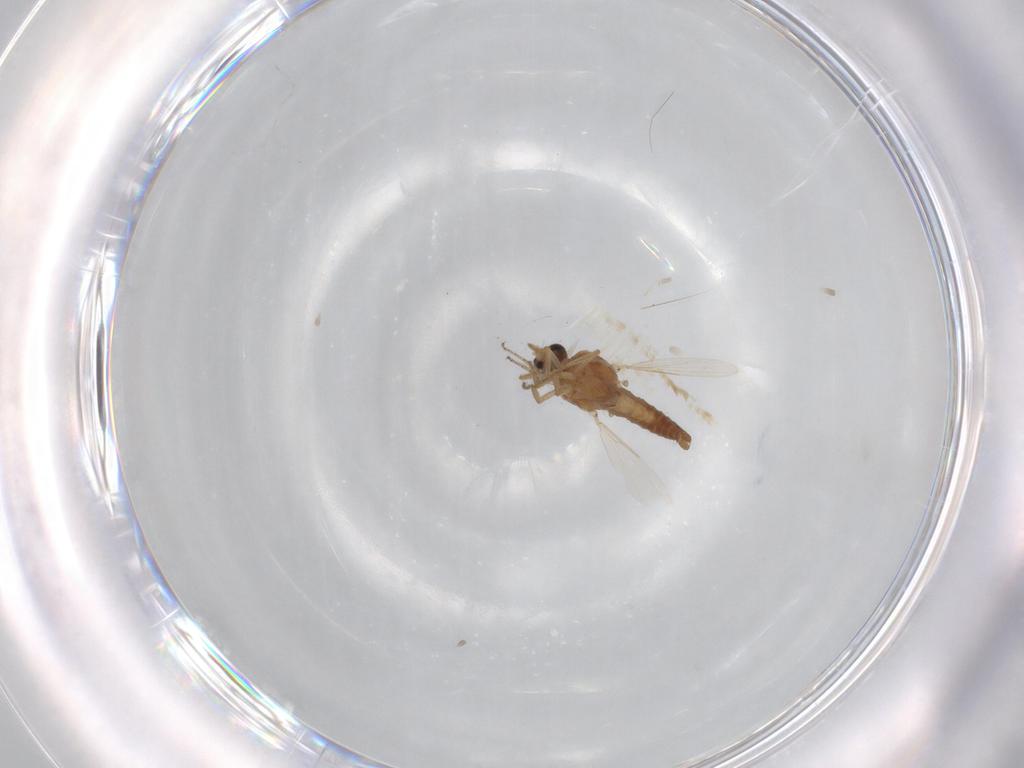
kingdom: Animalia
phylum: Arthropoda
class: Insecta
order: Diptera
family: Ceratopogonidae
